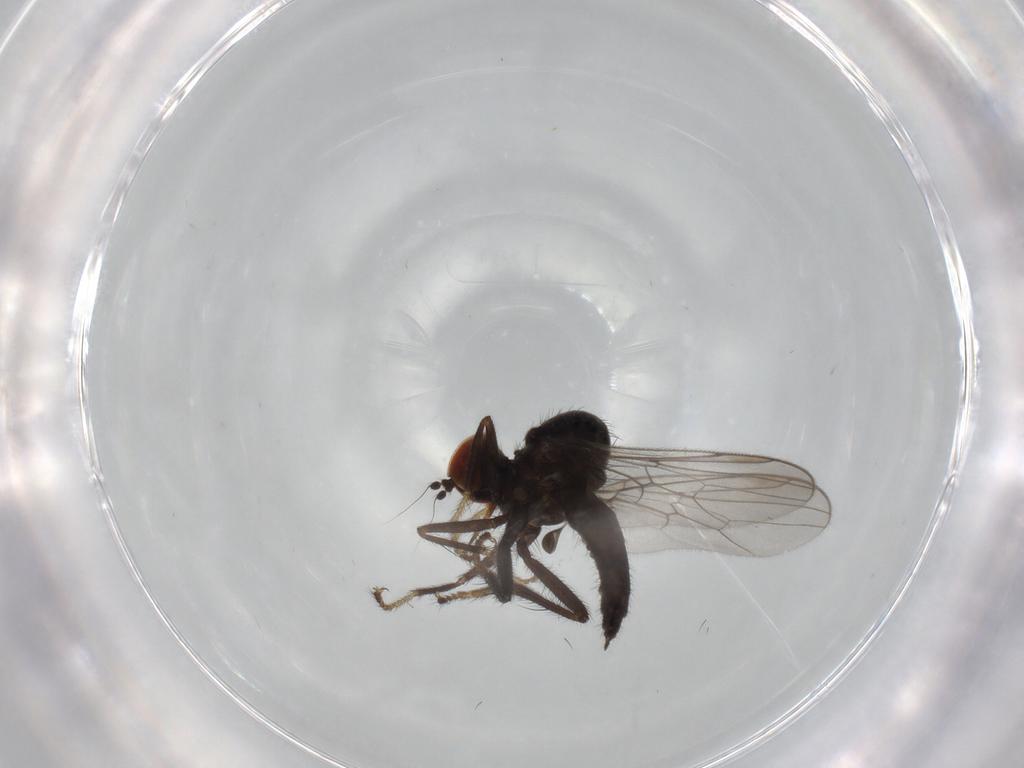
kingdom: Animalia
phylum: Arthropoda
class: Insecta
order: Diptera
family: Hybotidae
